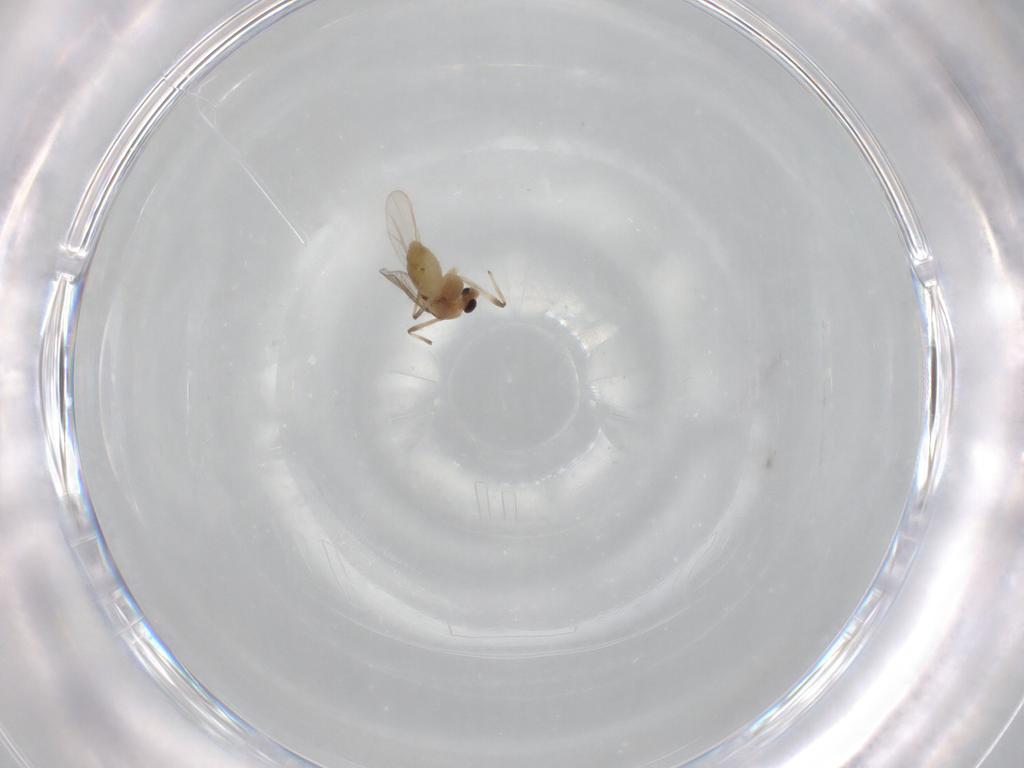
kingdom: Animalia
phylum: Arthropoda
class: Insecta
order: Diptera
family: Chironomidae
